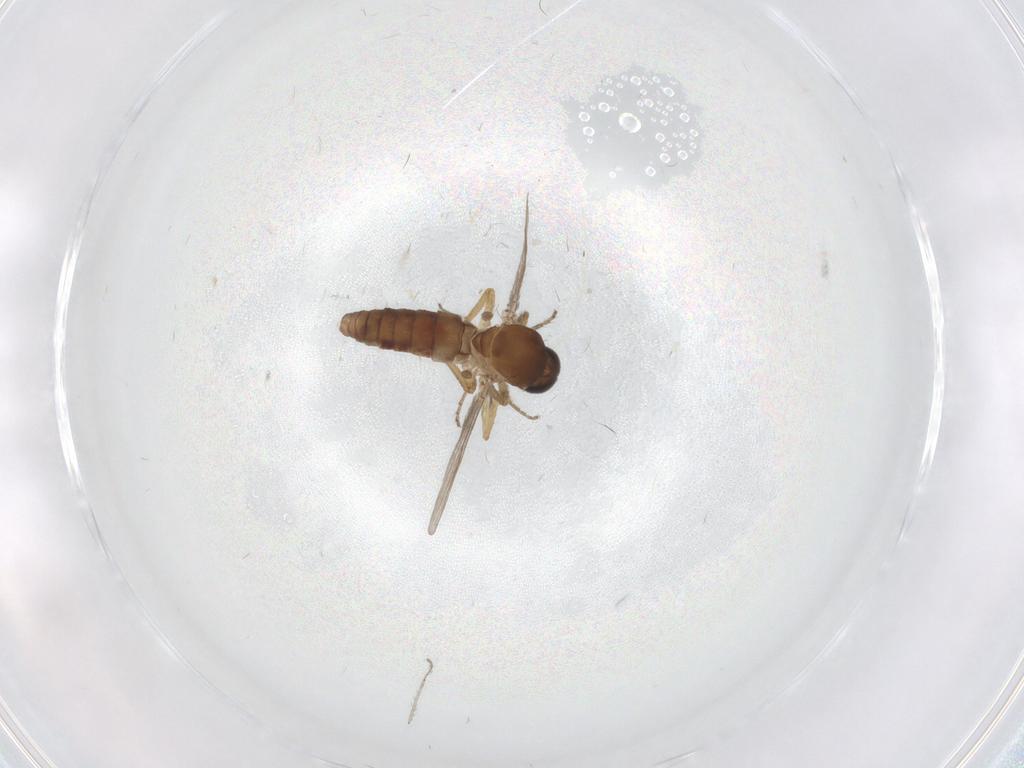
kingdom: Animalia
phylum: Arthropoda
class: Insecta
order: Diptera
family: Ceratopogonidae
